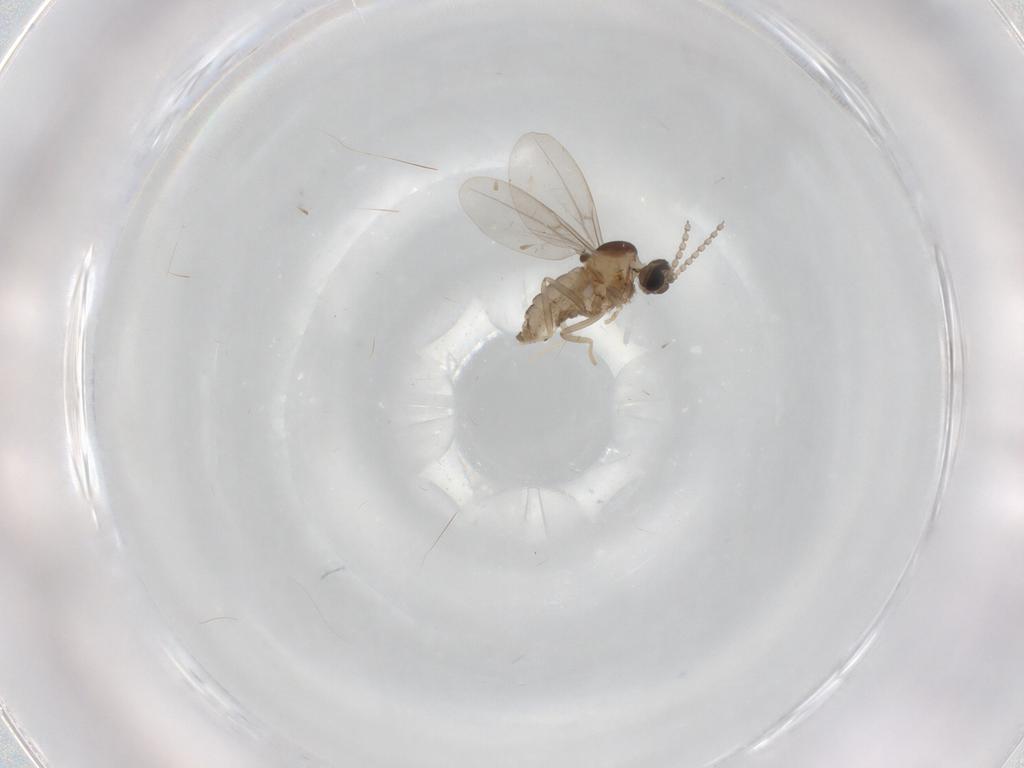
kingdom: Animalia
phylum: Arthropoda
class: Insecta
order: Diptera
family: Cecidomyiidae
